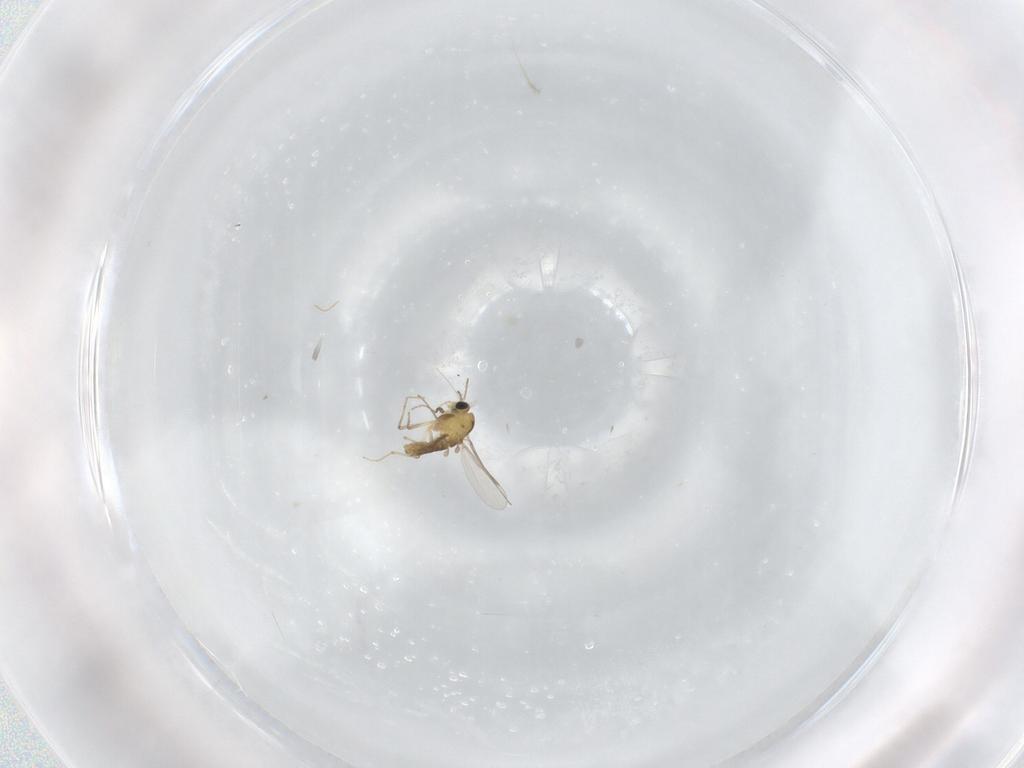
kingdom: Animalia
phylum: Arthropoda
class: Insecta
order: Diptera
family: Chironomidae
